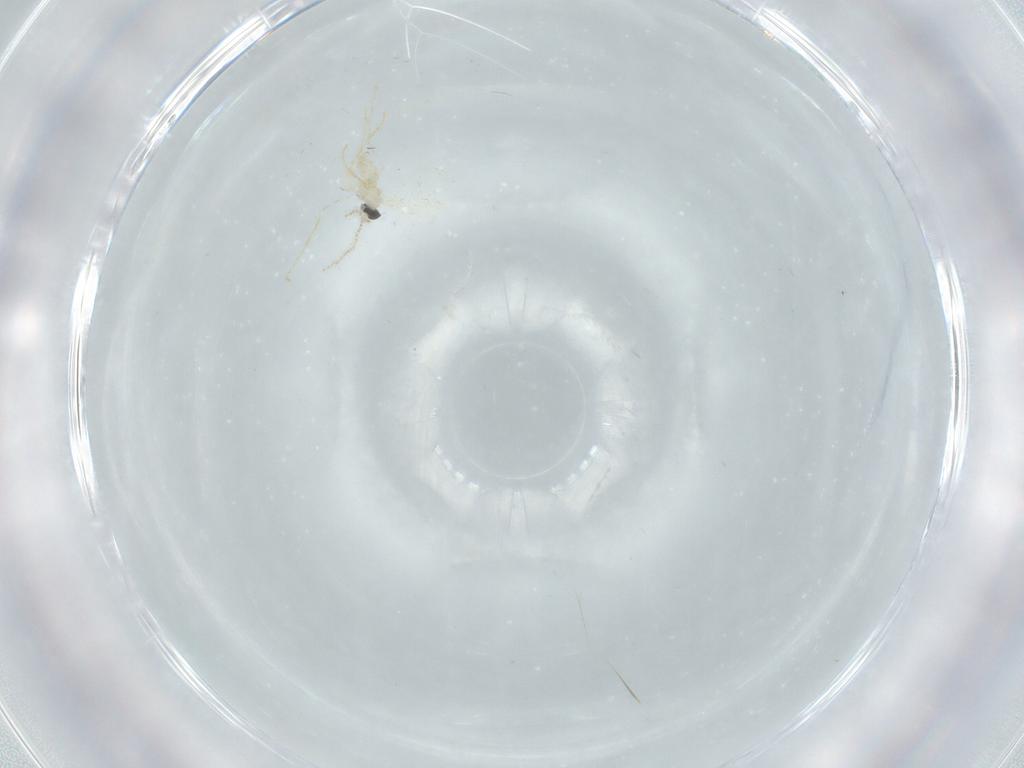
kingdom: Animalia
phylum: Arthropoda
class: Insecta
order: Diptera
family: Cecidomyiidae
